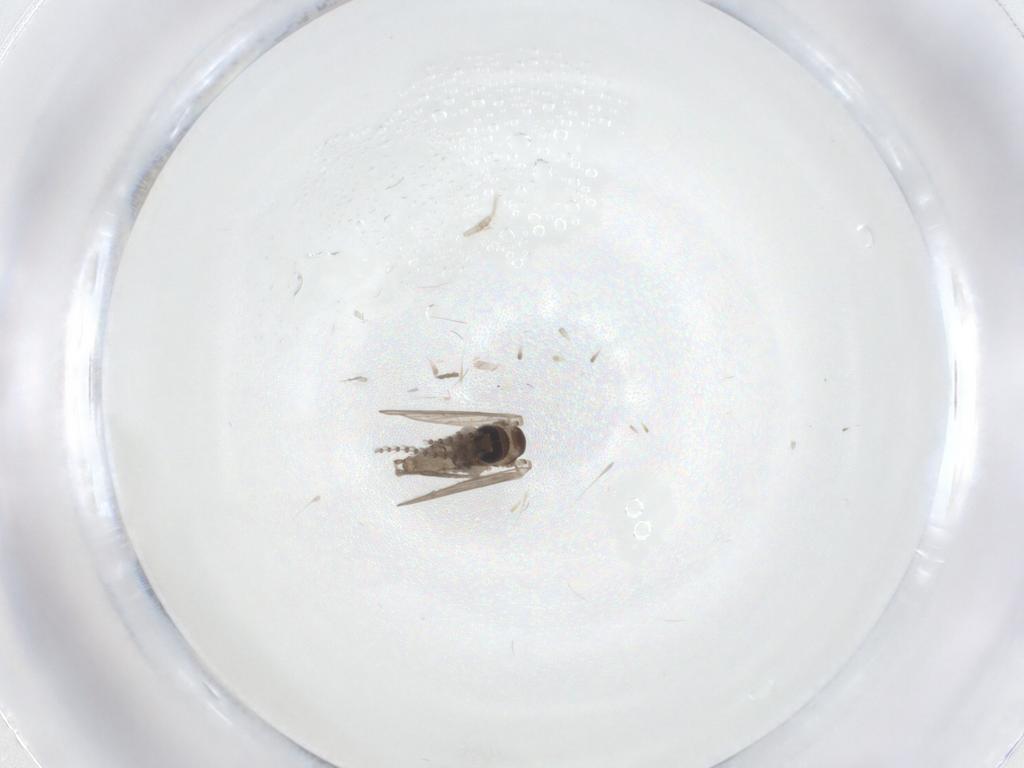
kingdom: Animalia
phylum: Arthropoda
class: Insecta
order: Diptera
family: Psychodidae
